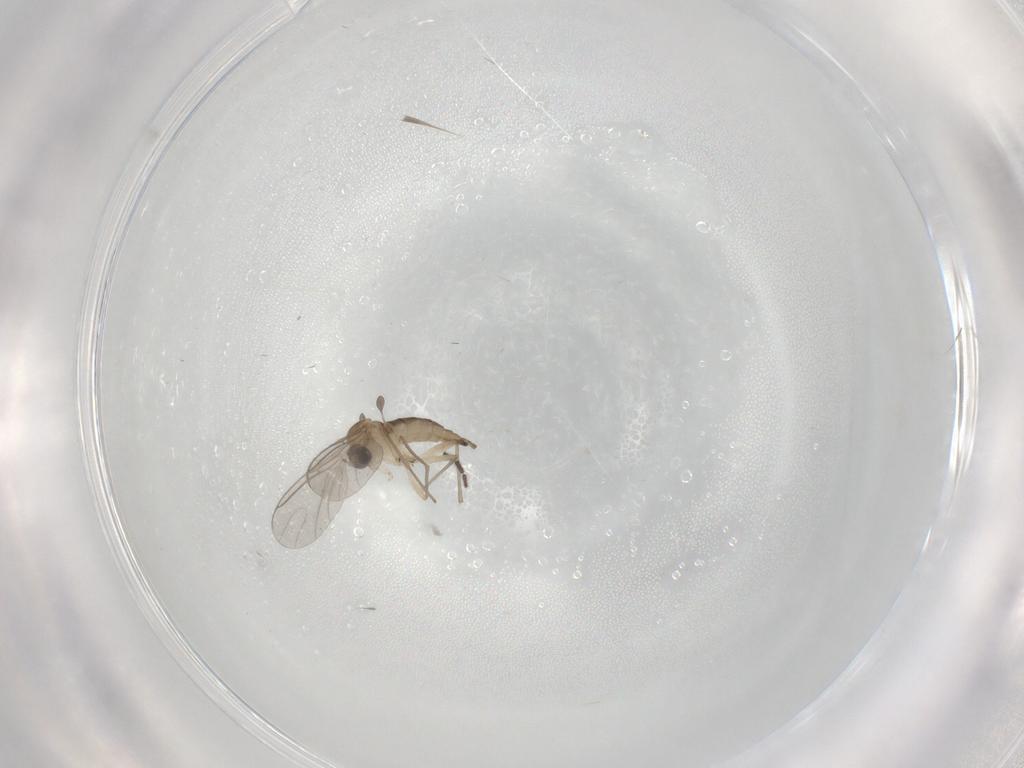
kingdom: Animalia
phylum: Arthropoda
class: Insecta
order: Diptera
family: Sciaridae
